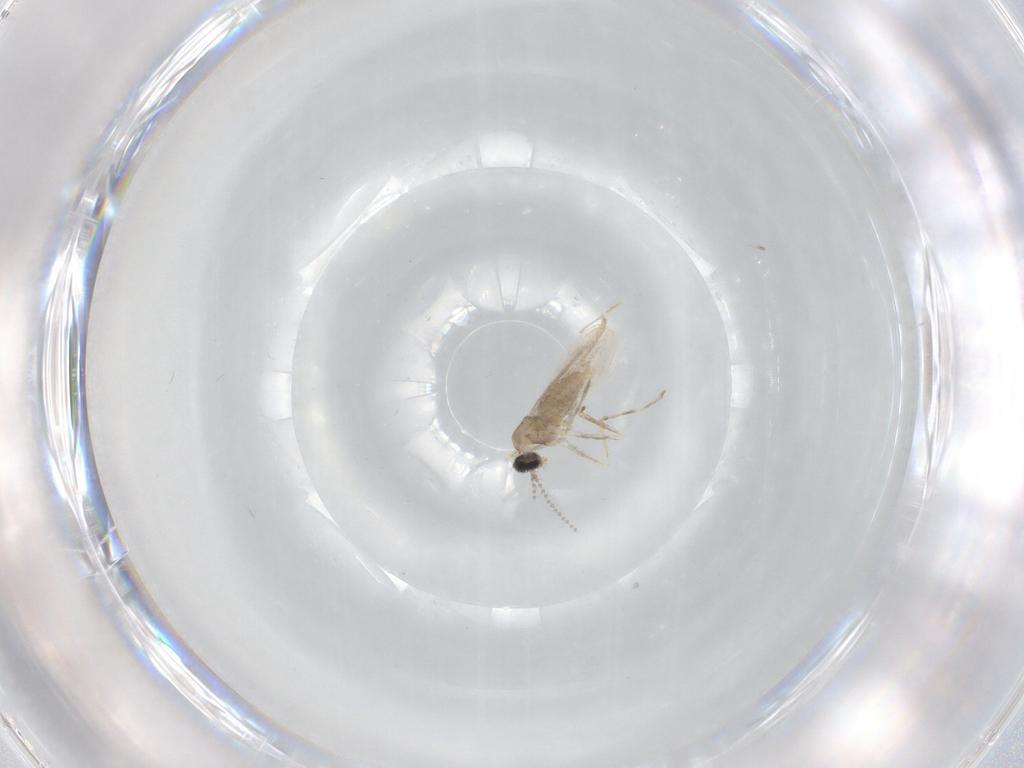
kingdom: Animalia
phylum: Arthropoda
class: Insecta
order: Diptera
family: Cecidomyiidae
